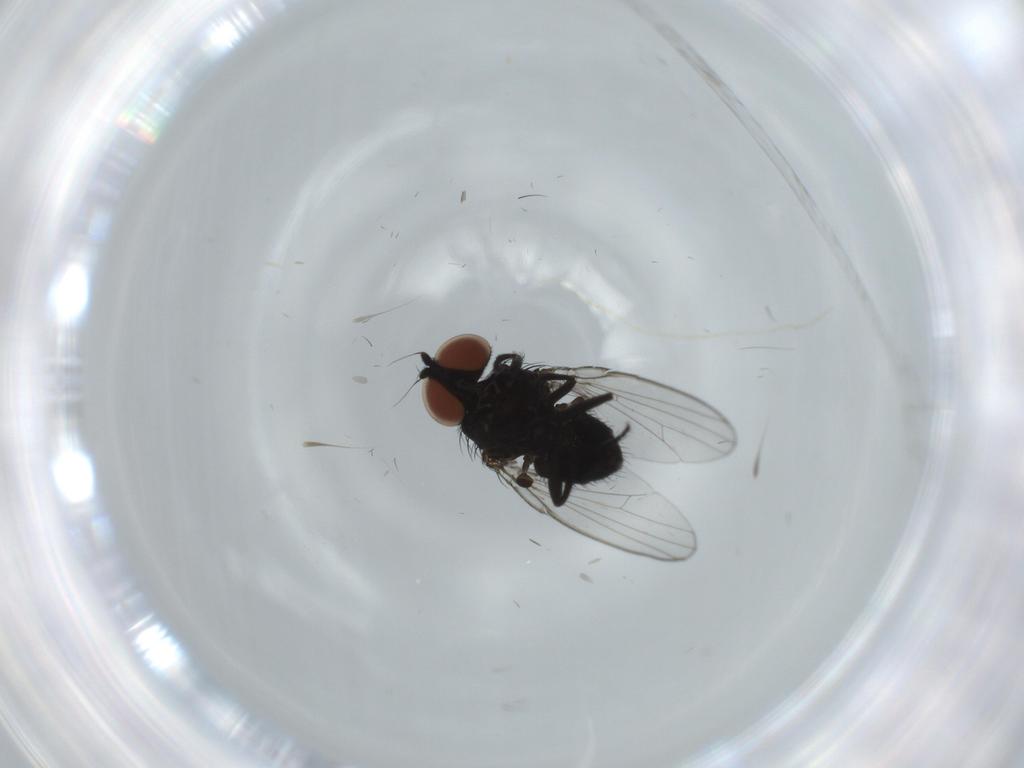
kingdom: Animalia
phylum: Arthropoda
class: Insecta
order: Diptera
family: Milichiidae
